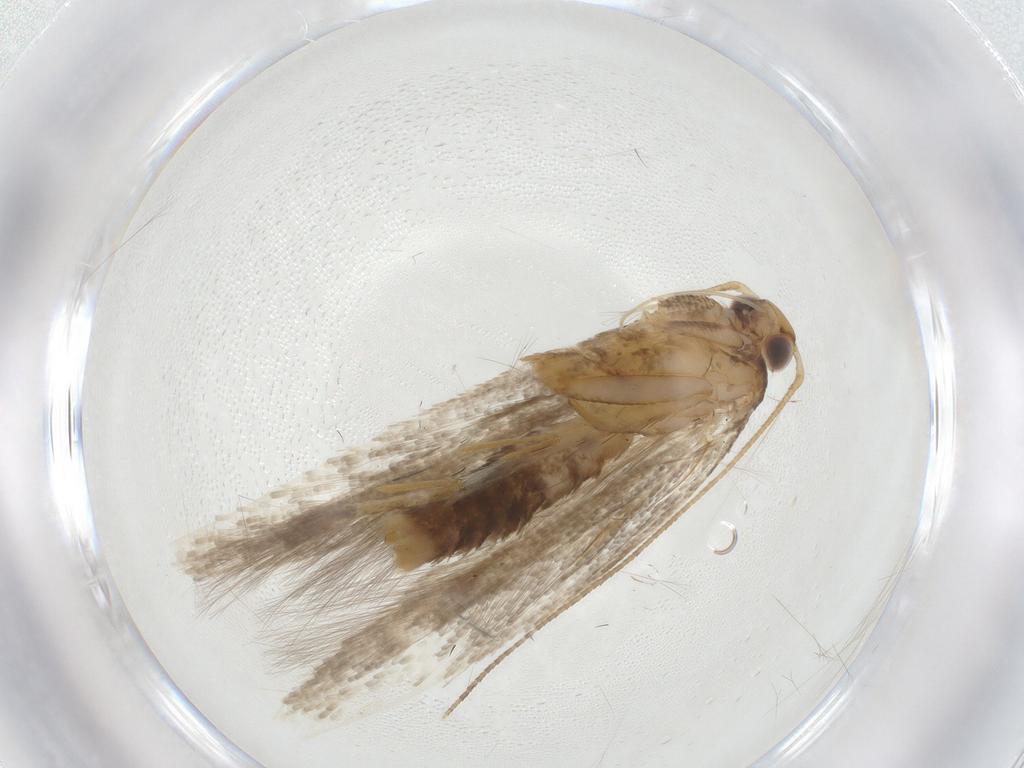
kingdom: Animalia
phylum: Arthropoda
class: Insecta
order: Lepidoptera
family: Gelechiidae
